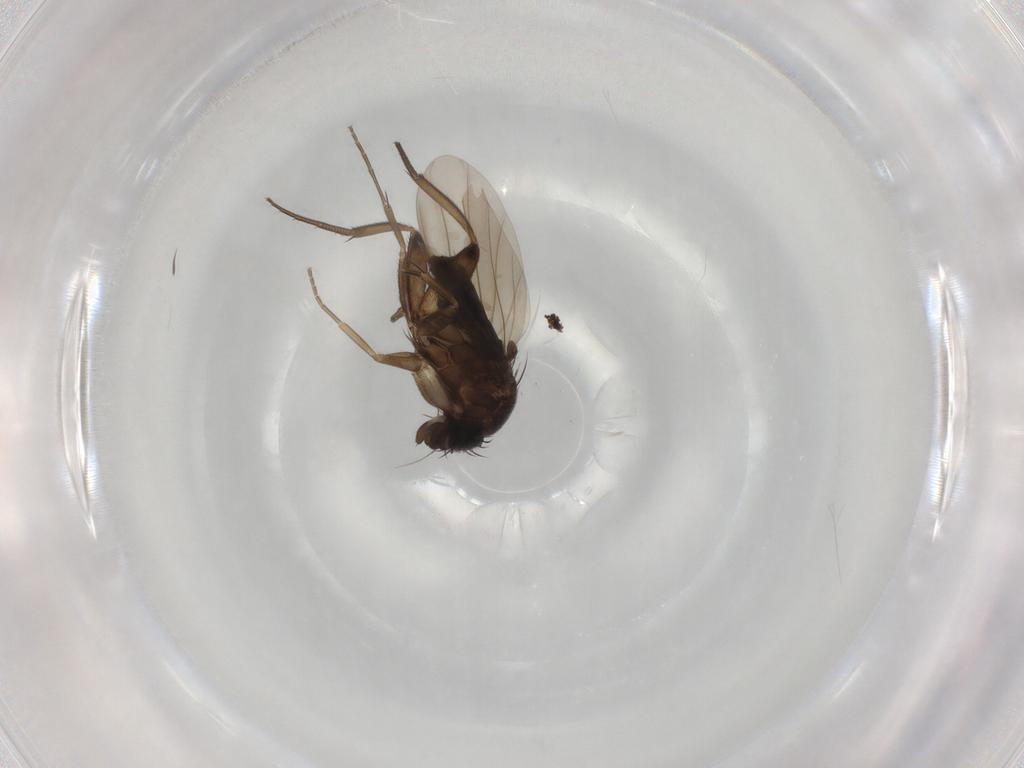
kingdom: Animalia
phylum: Arthropoda
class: Insecta
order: Diptera
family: Phoridae
